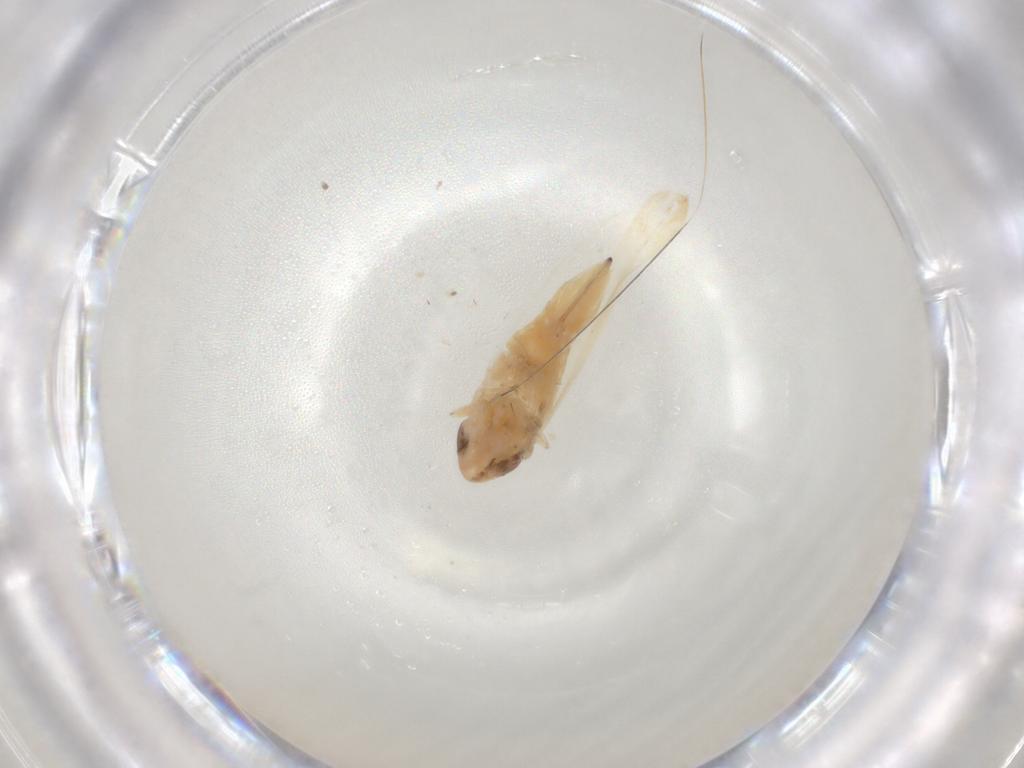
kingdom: Animalia
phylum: Arthropoda
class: Insecta
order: Hemiptera
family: Cicadellidae
